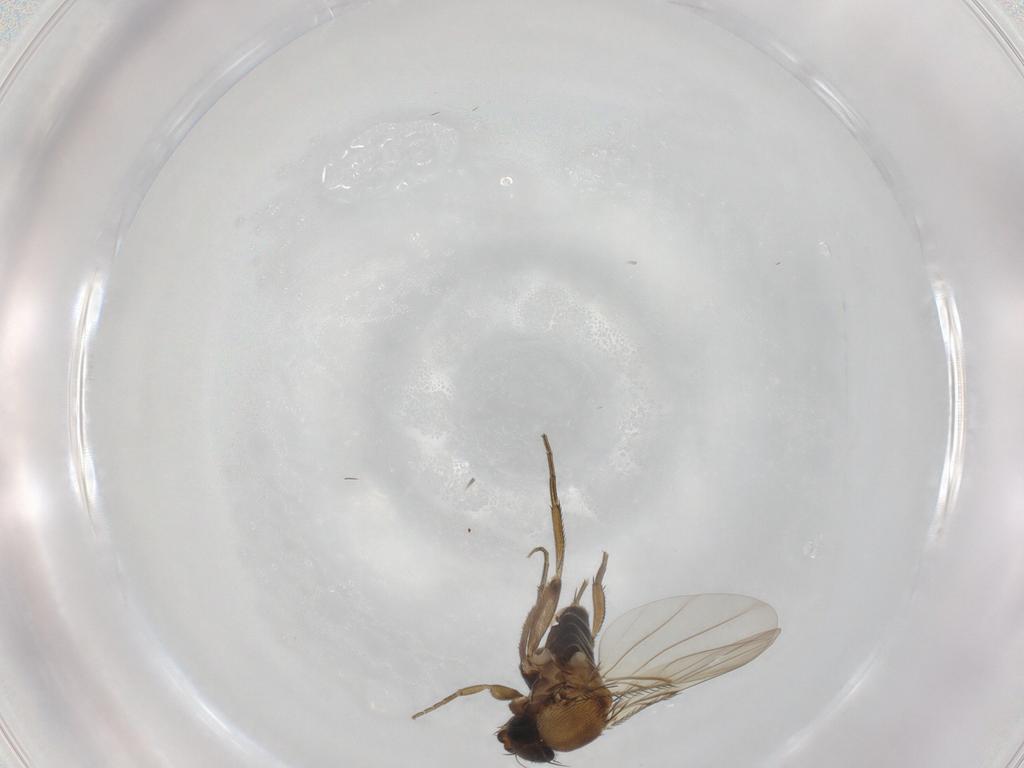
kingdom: Animalia
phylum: Arthropoda
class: Insecta
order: Diptera
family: Phoridae
